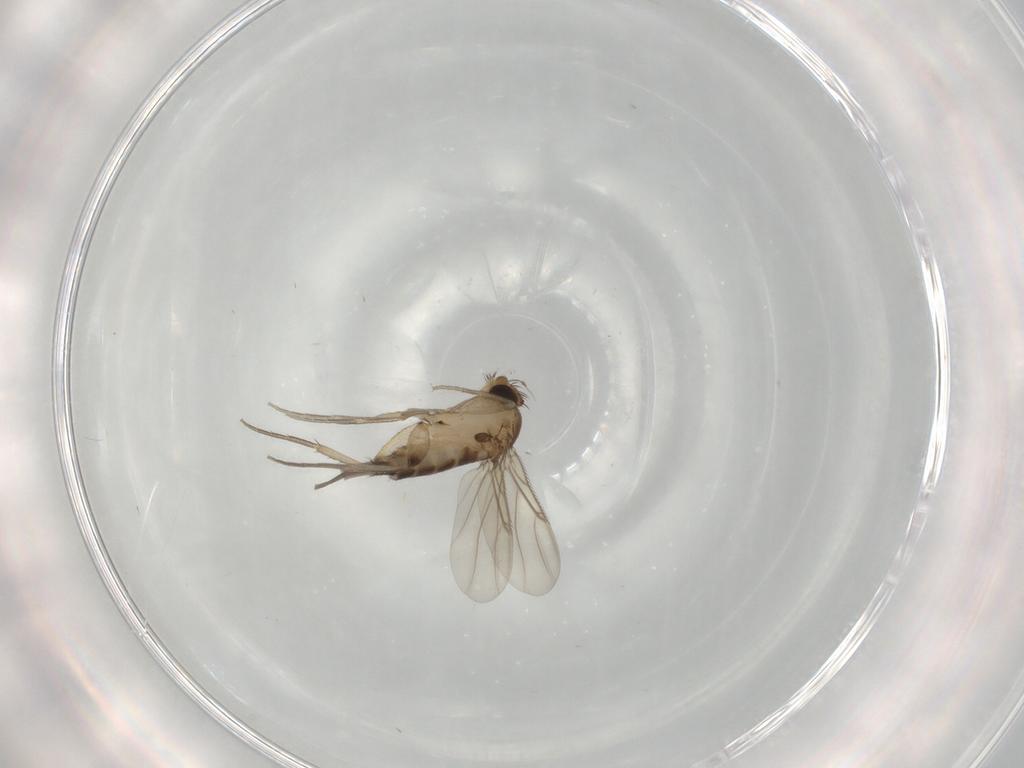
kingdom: Animalia
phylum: Arthropoda
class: Insecta
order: Diptera
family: Phoridae
